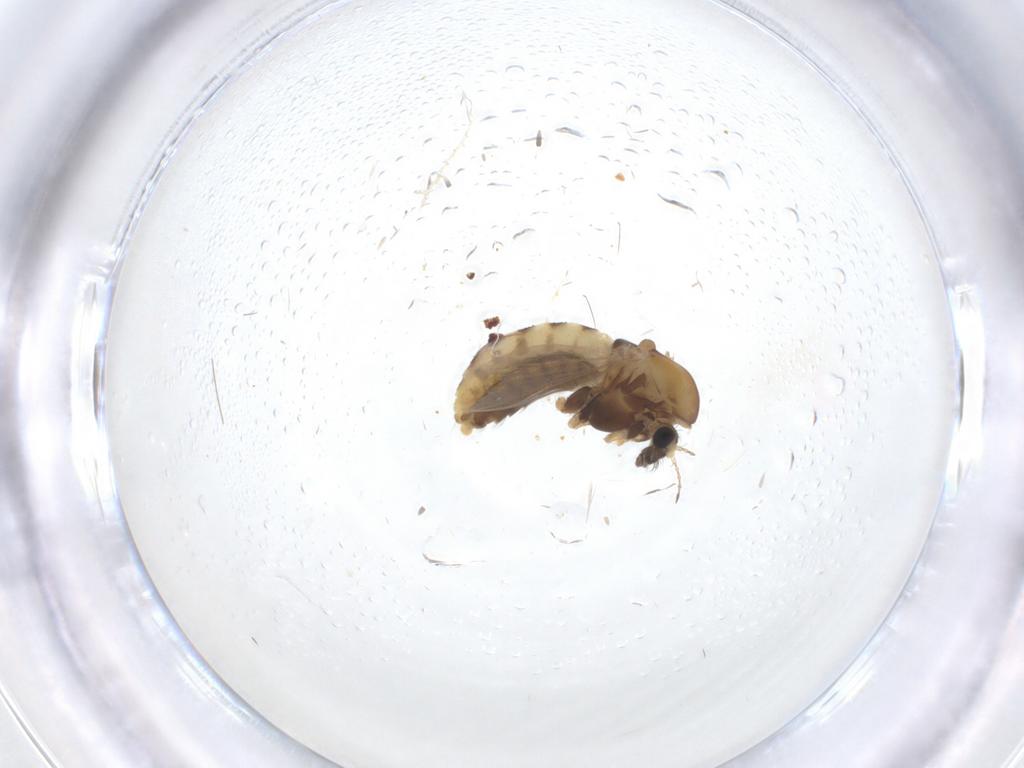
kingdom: Animalia
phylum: Arthropoda
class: Insecta
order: Diptera
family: Chironomidae
